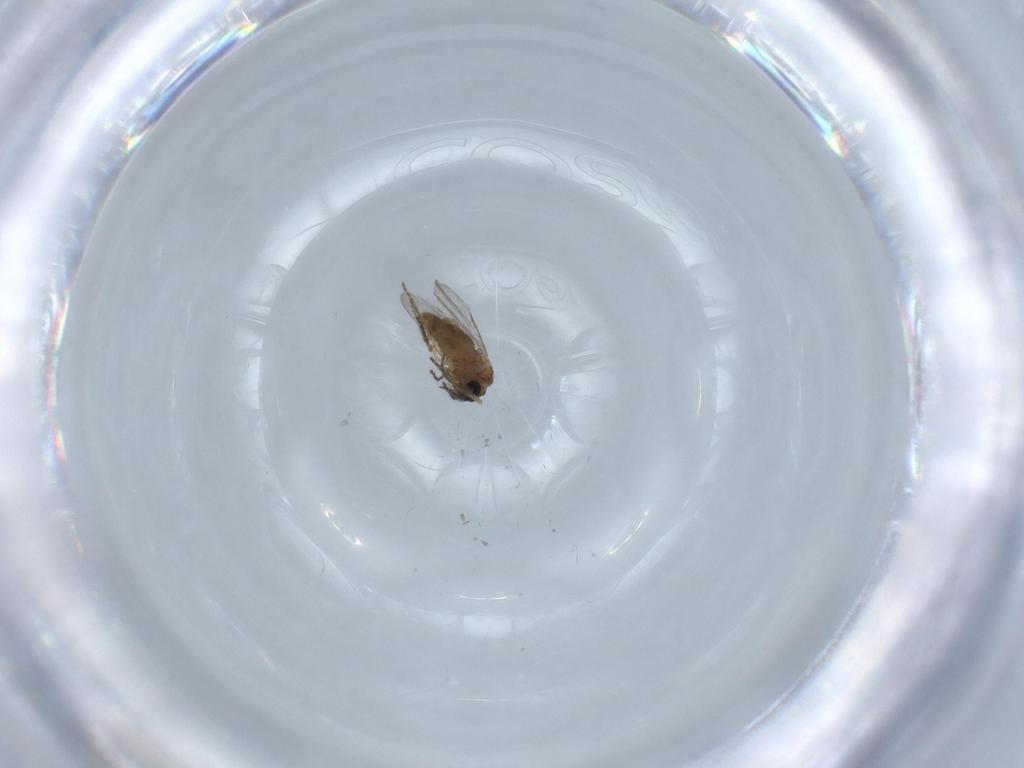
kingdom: Animalia
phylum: Arthropoda
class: Insecta
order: Diptera
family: Ceratopogonidae
